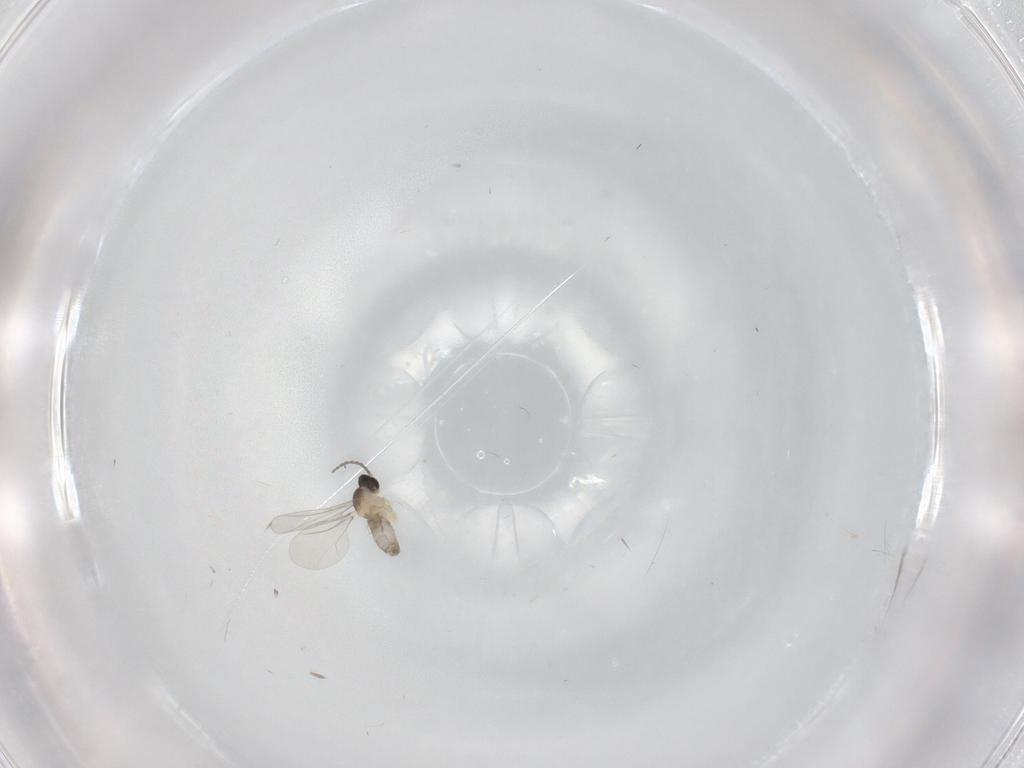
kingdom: Animalia
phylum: Arthropoda
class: Insecta
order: Diptera
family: Cecidomyiidae
